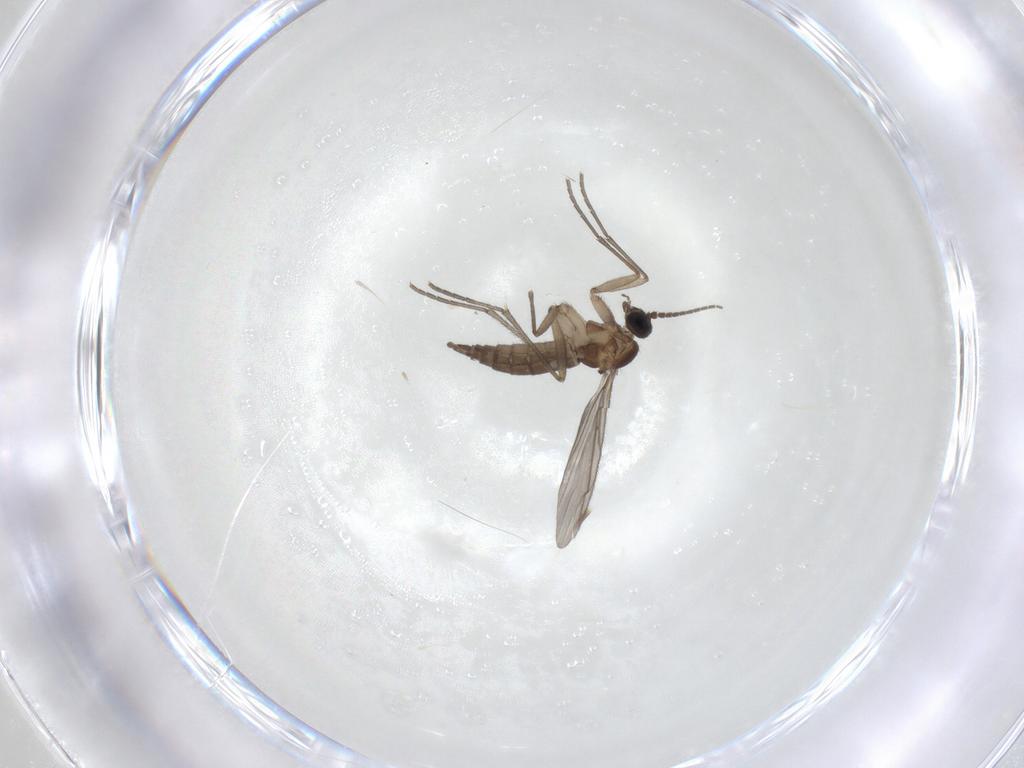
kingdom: Animalia
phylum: Arthropoda
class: Insecta
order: Diptera
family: Sciaridae
